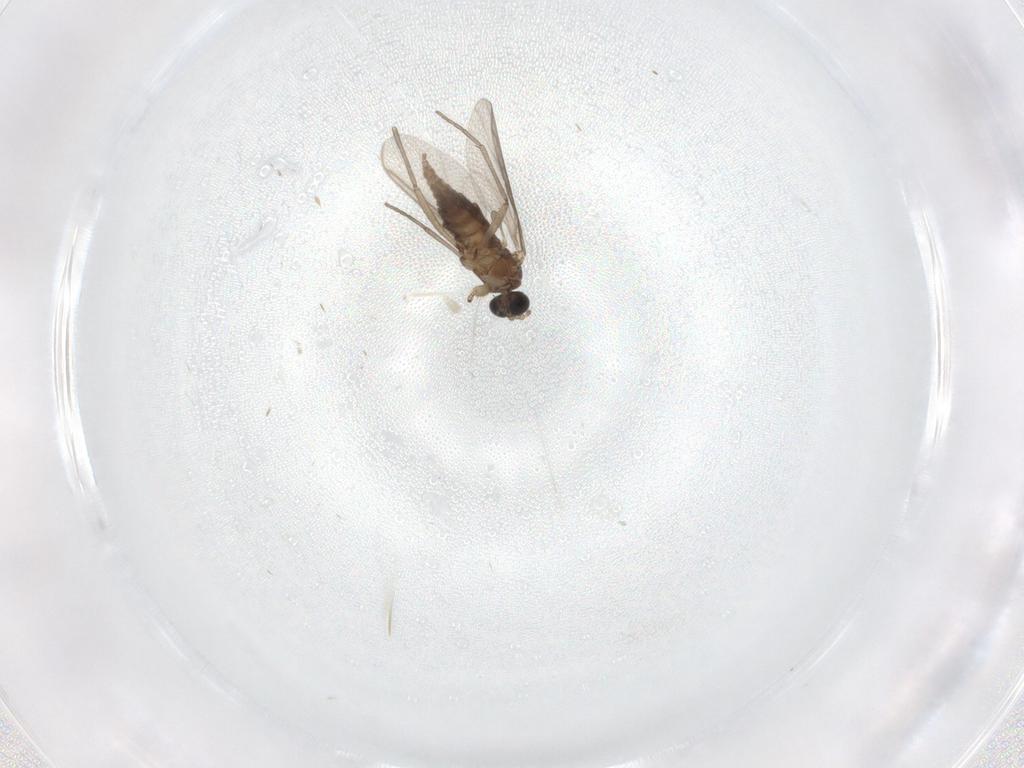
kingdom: Animalia
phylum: Arthropoda
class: Insecta
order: Diptera
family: Sciaridae
